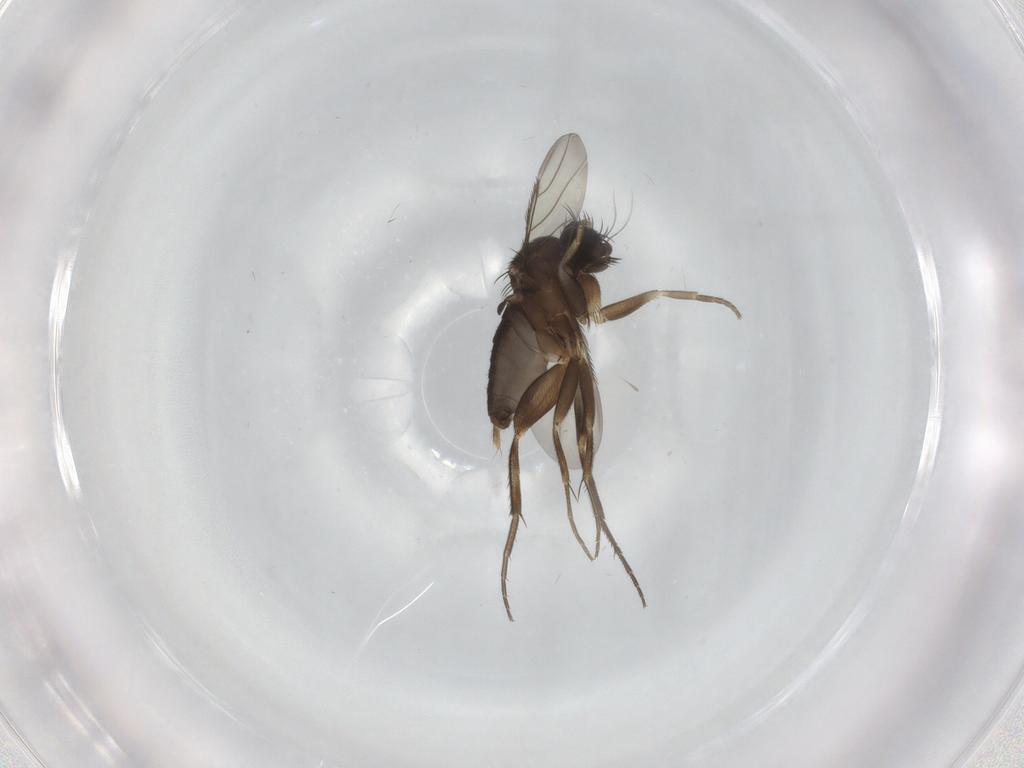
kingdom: Animalia
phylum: Arthropoda
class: Insecta
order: Diptera
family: Phoridae
